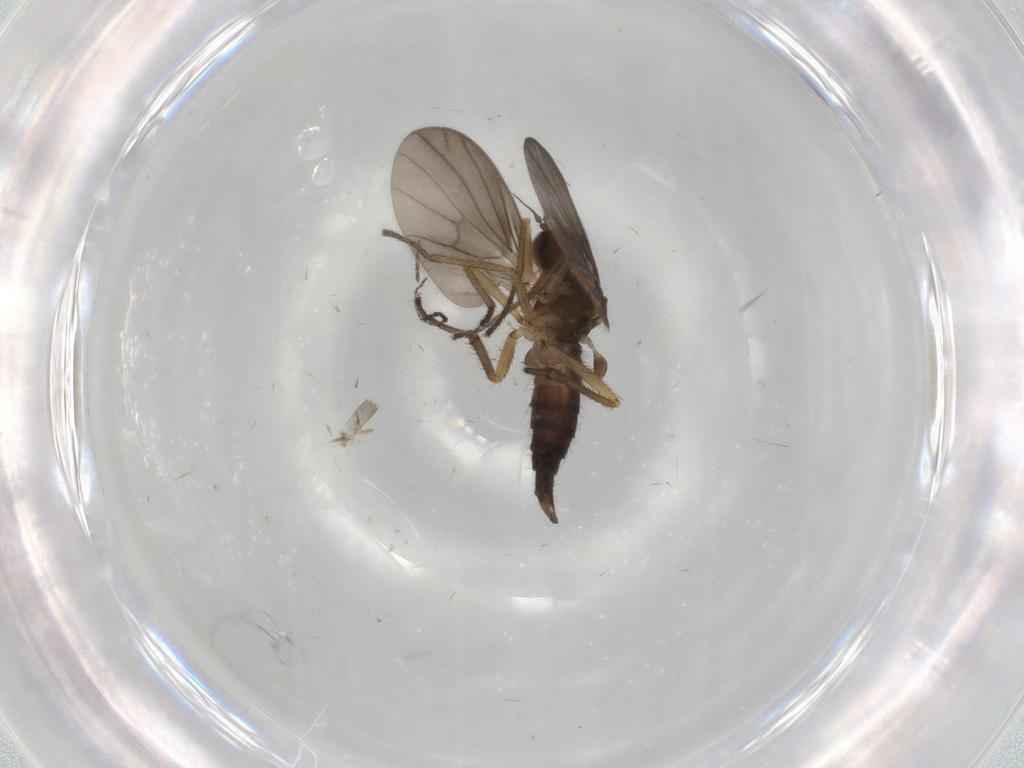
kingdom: Animalia
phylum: Arthropoda
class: Insecta
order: Diptera
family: Empididae
